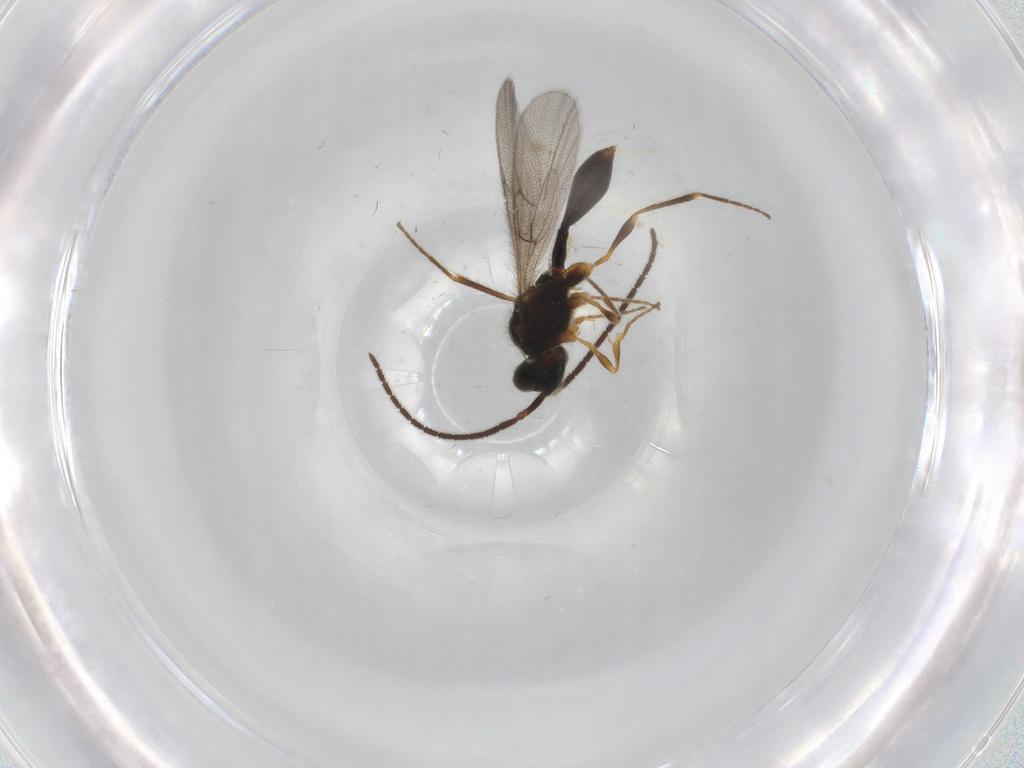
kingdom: Animalia
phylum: Arthropoda
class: Insecta
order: Hymenoptera
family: Diapriidae
